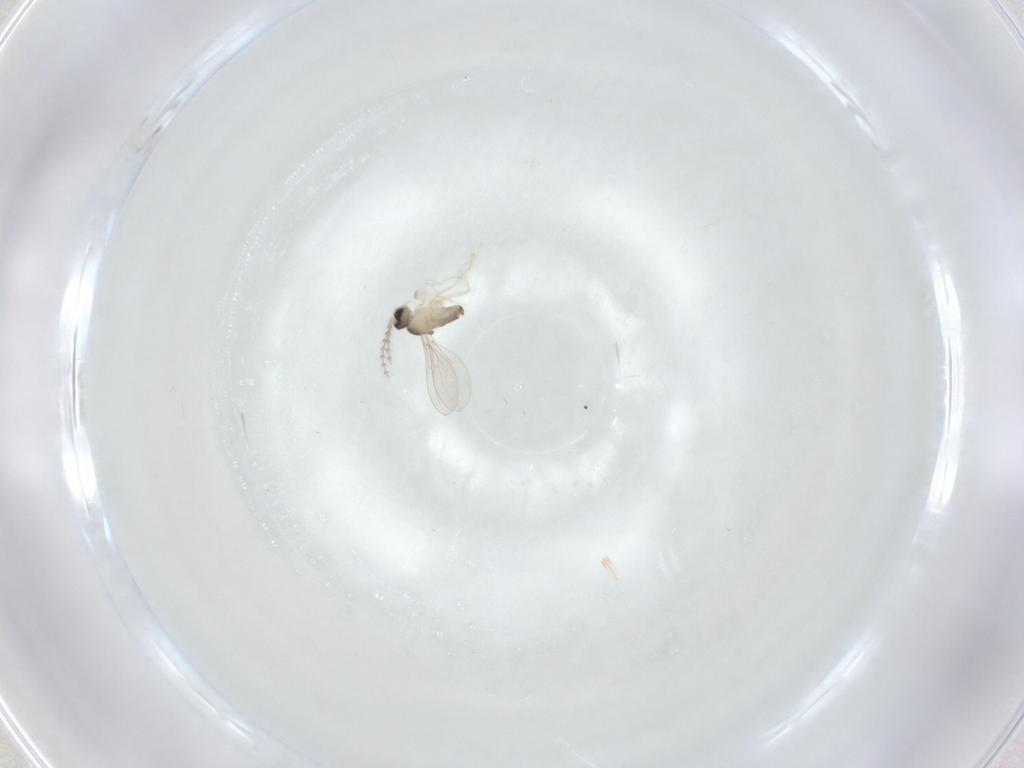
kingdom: Animalia
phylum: Arthropoda
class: Insecta
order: Diptera
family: Cecidomyiidae
